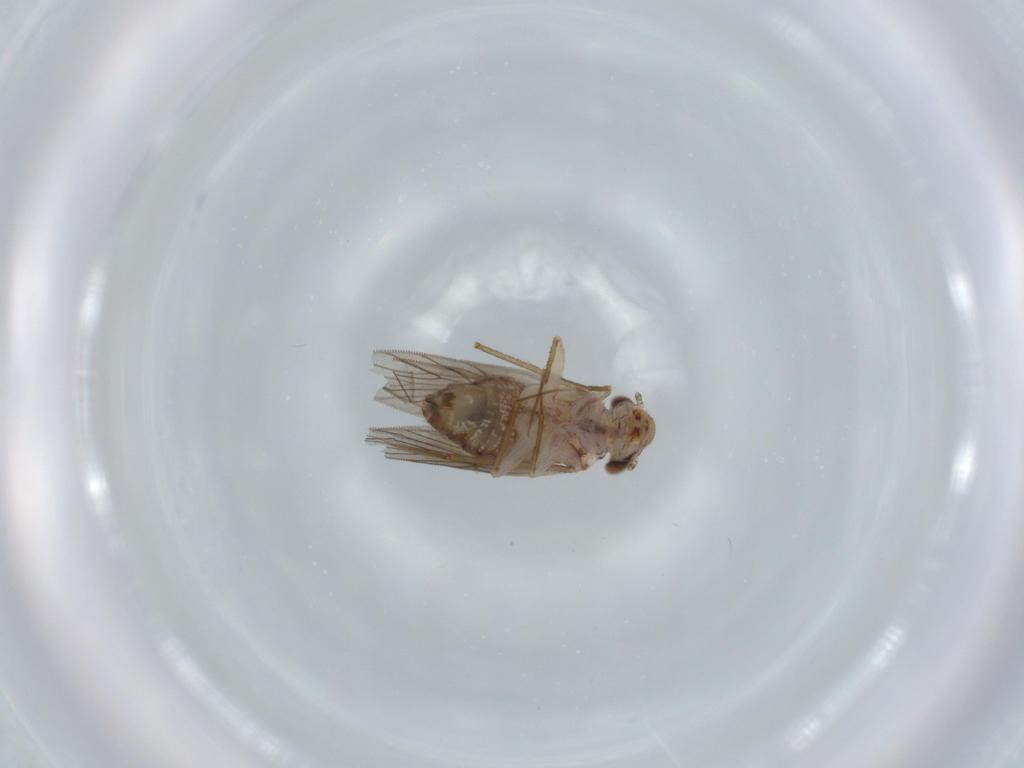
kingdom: Animalia
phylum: Arthropoda
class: Insecta
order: Psocodea
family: Lepidopsocidae
